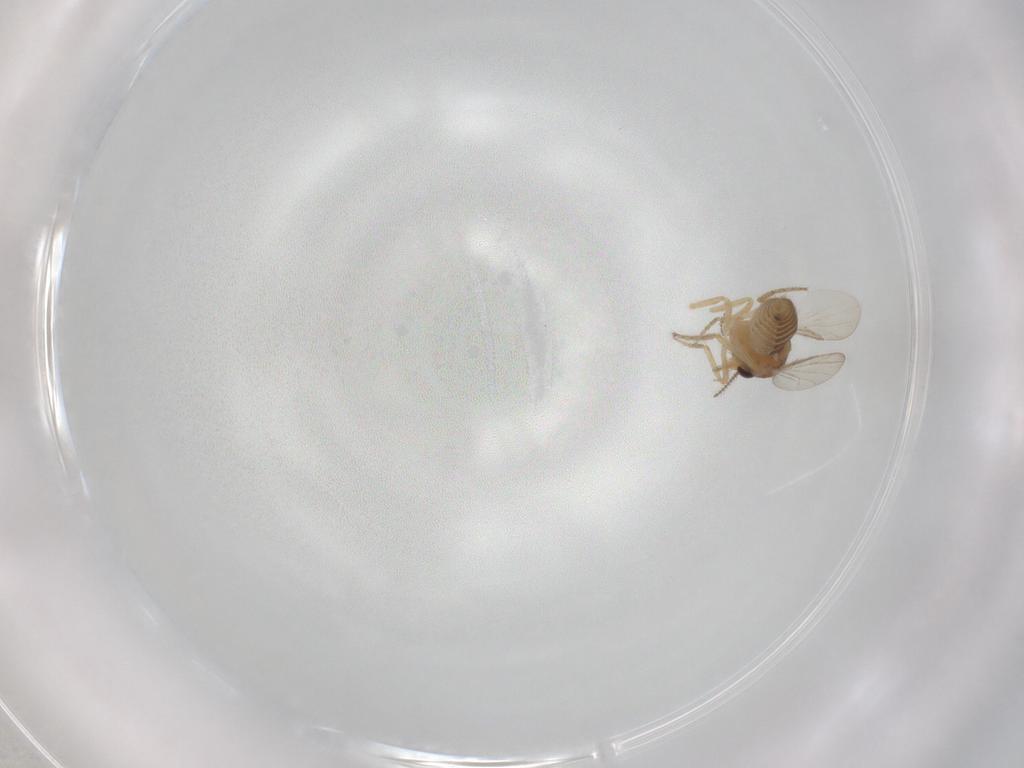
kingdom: Animalia
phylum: Arthropoda
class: Insecta
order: Diptera
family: Ceratopogonidae
